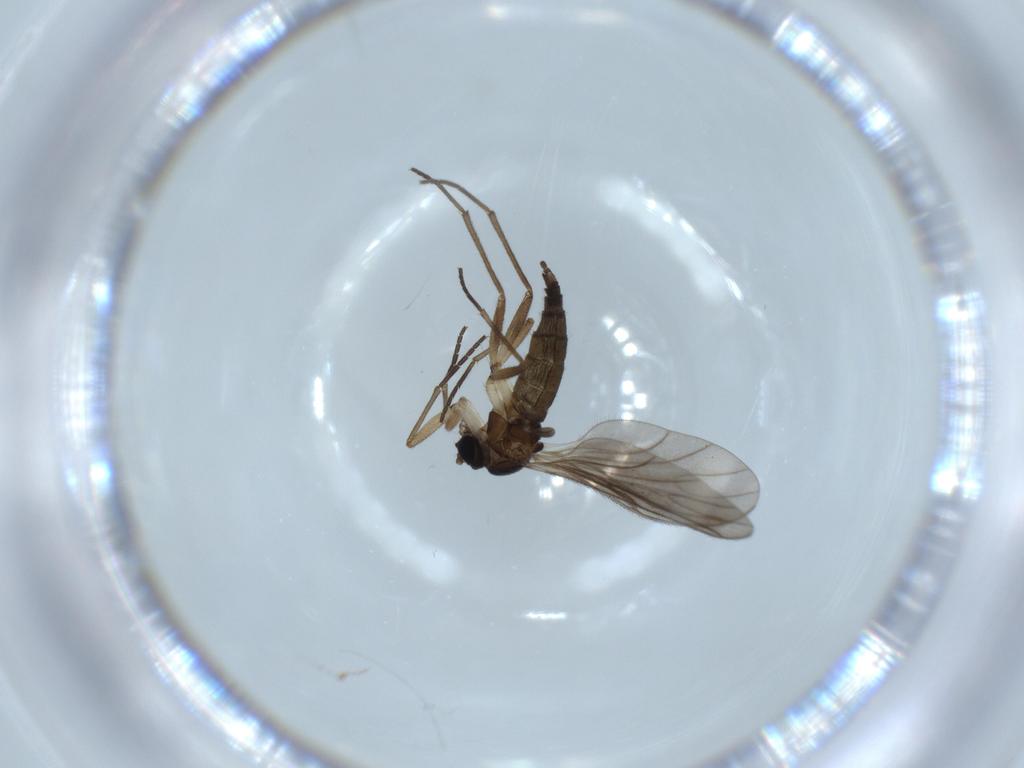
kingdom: Animalia
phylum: Arthropoda
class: Insecta
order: Diptera
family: Sciaridae
